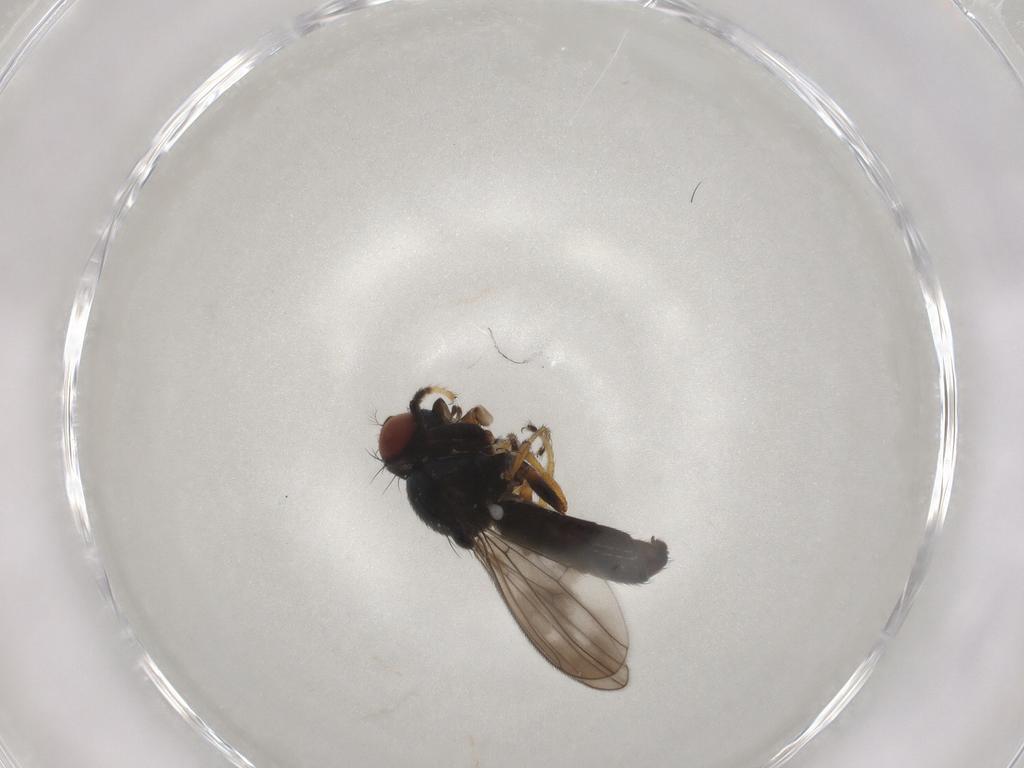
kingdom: Animalia
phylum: Arthropoda
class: Insecta
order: Diptera
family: Ephydridae
